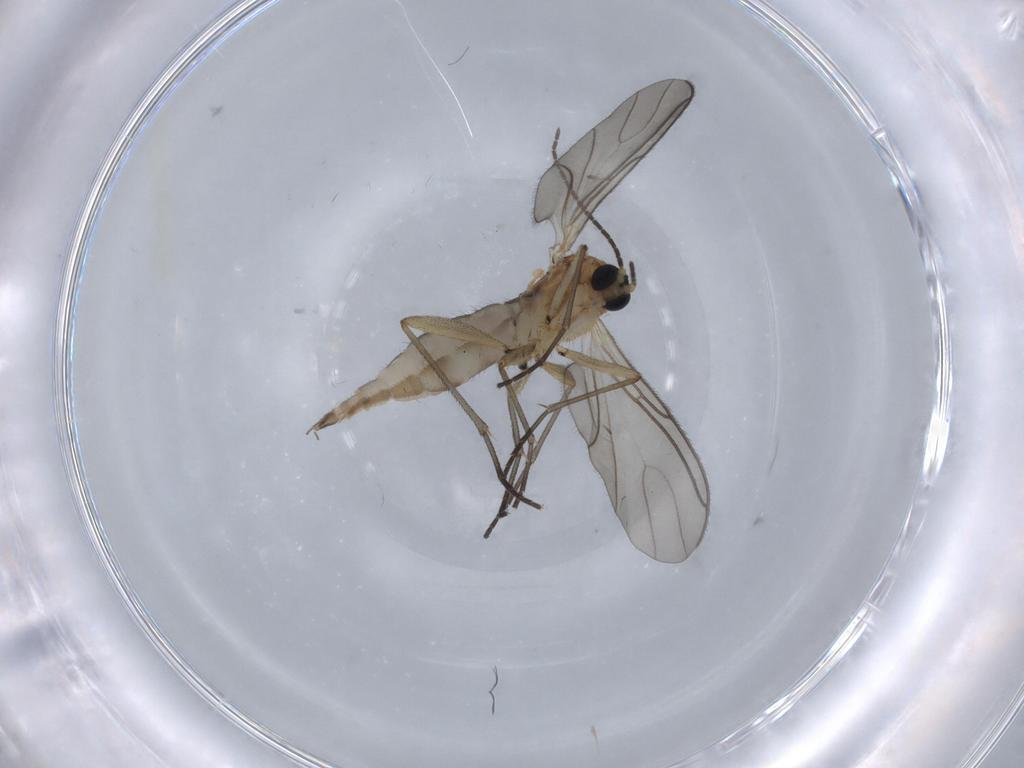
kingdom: Animalia
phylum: Arthropoda
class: Insecta
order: Diptera
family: Sciaridae
